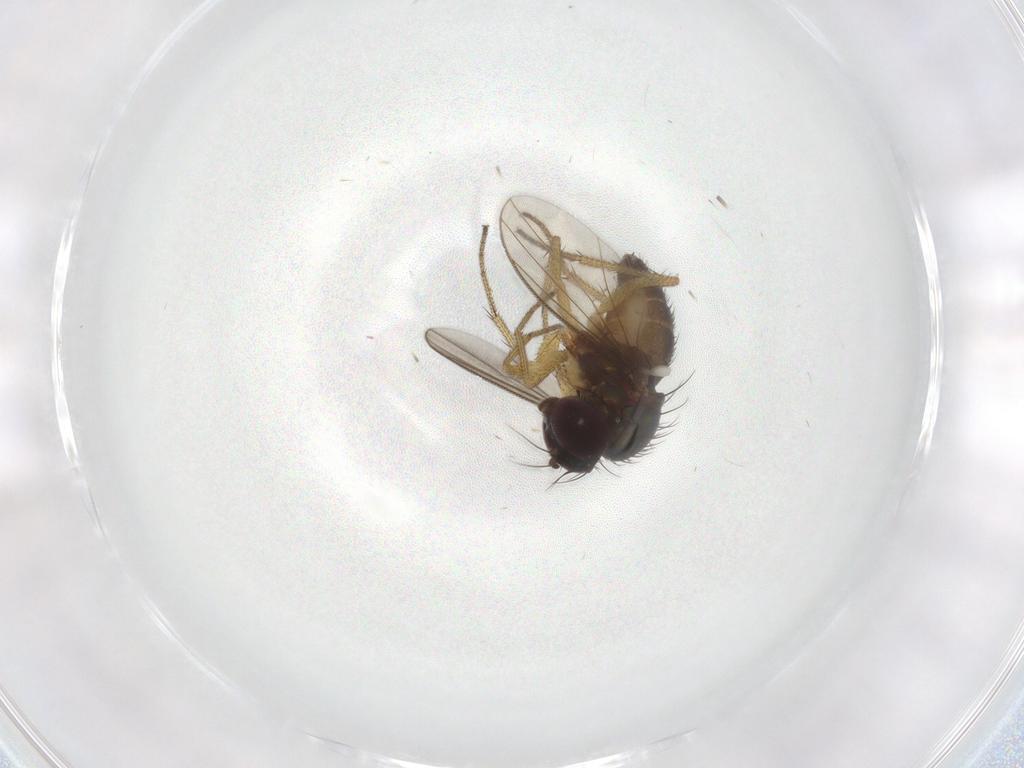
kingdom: Animalia
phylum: Arthropoda
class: Insecta
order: Diptera
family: Dolichopodidae
